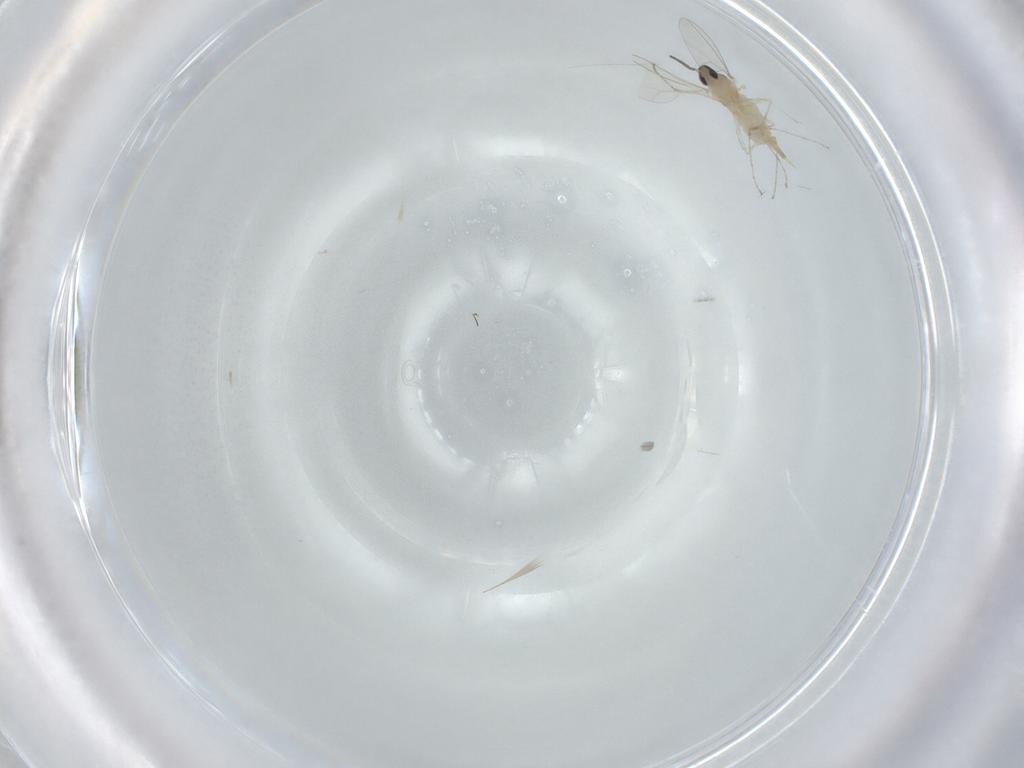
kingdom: Animalia
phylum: Arthropoda
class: Insecta
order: Diptera
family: Cecidomyiidae
